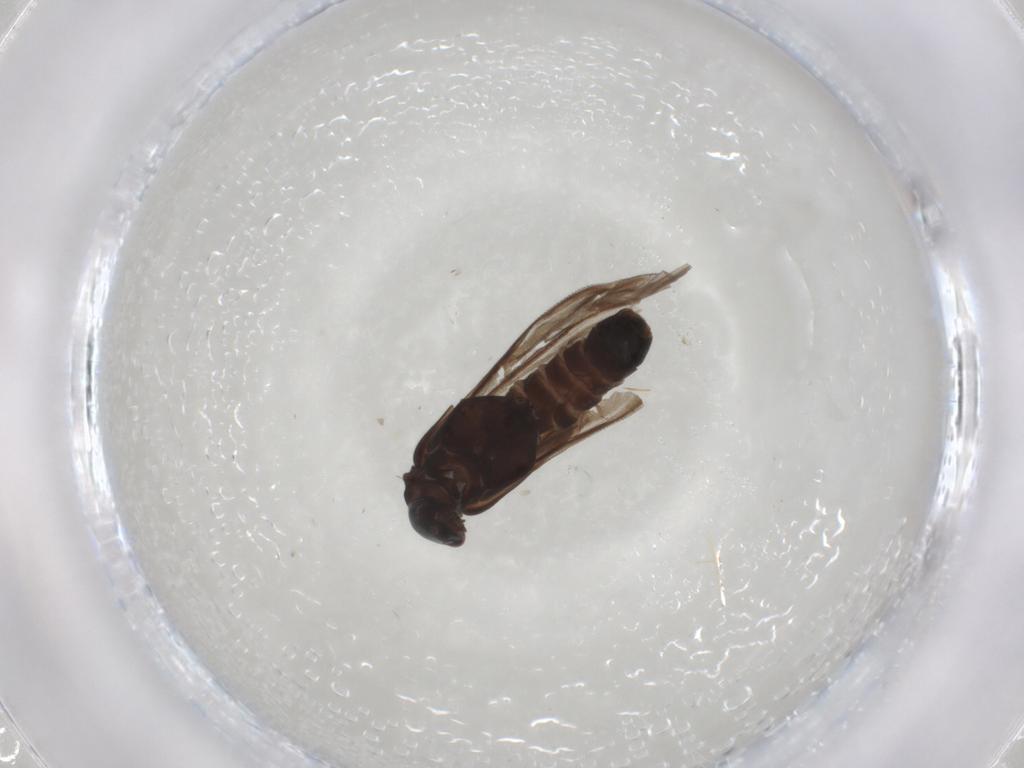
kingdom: Animalia
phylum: Arthropoda
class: Insecta
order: Coleoptera
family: Cantharidae
